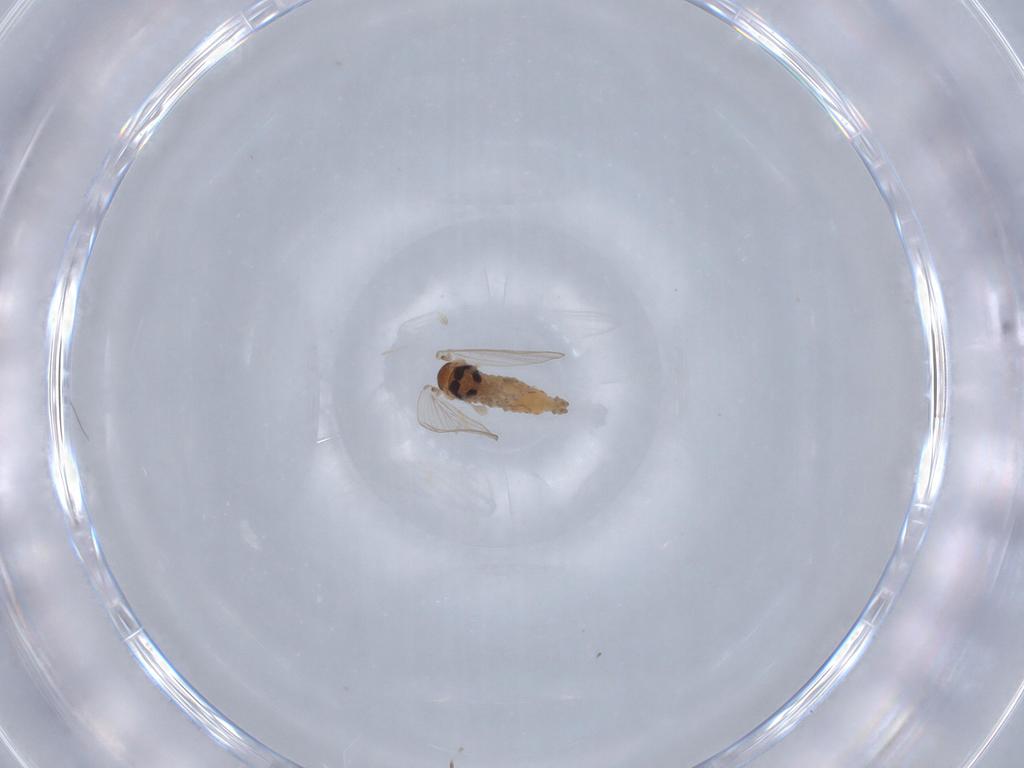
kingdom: Animalia
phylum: Arthropoda
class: Insecta
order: Diptera
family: Psychodidae
